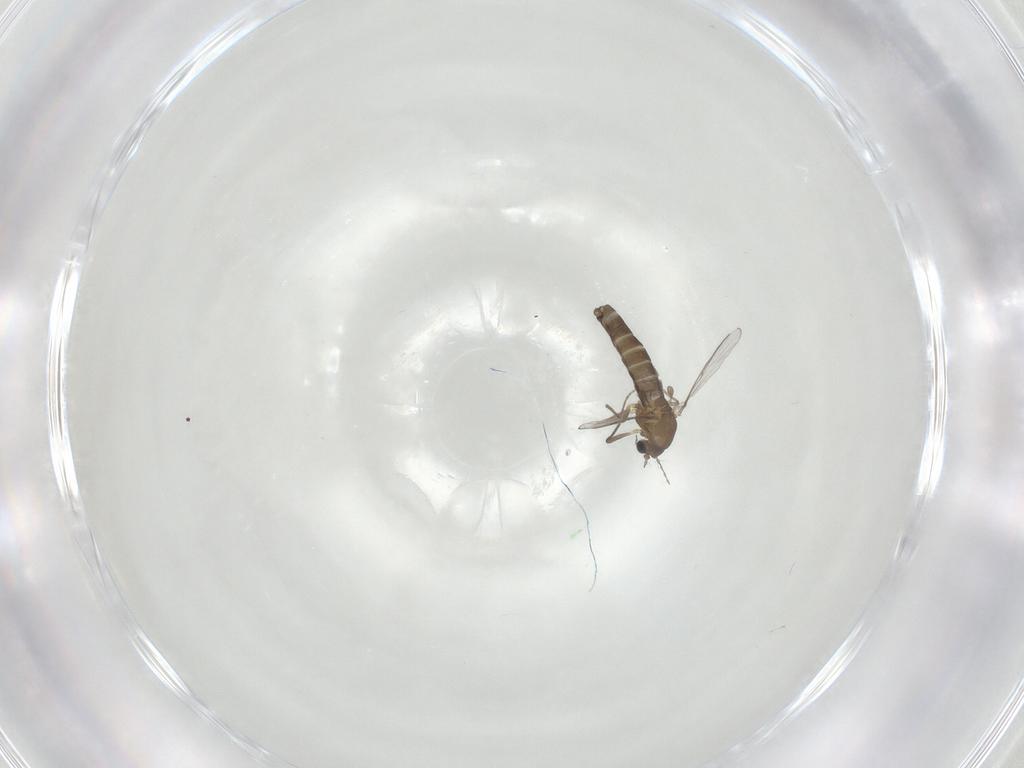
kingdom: Animalia
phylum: Arthropoda
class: Insecta
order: Diptera
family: Chironomidae
